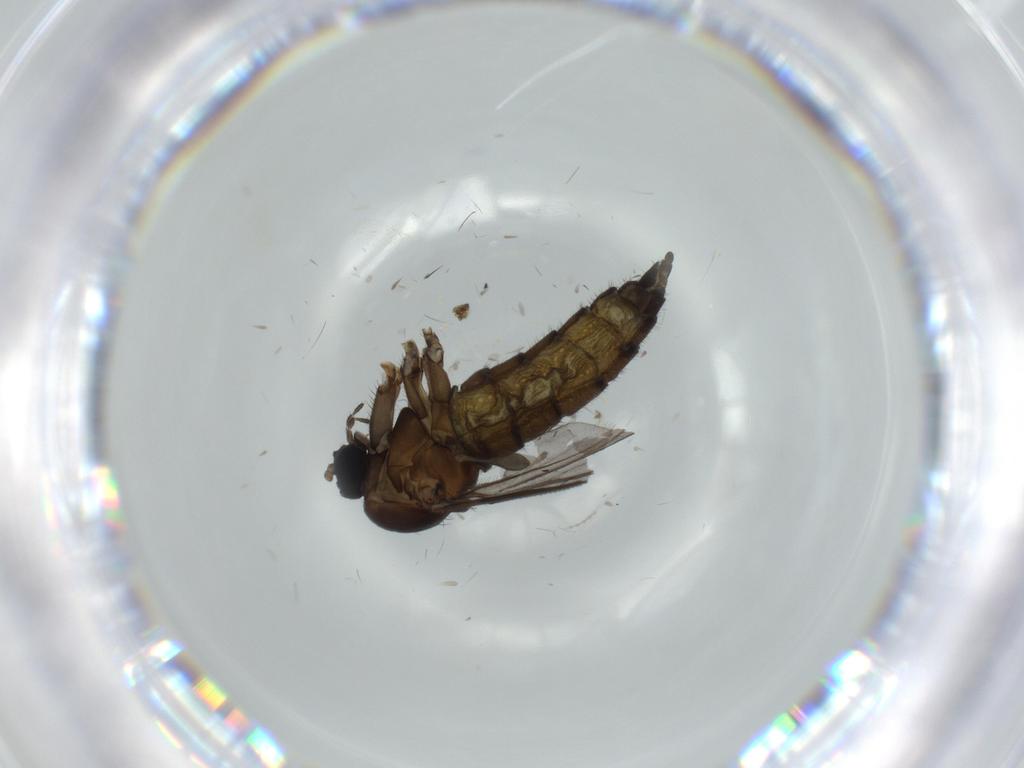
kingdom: Animalia
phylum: Arthropoda
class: Insecta
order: Diptera
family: Sciaridae
